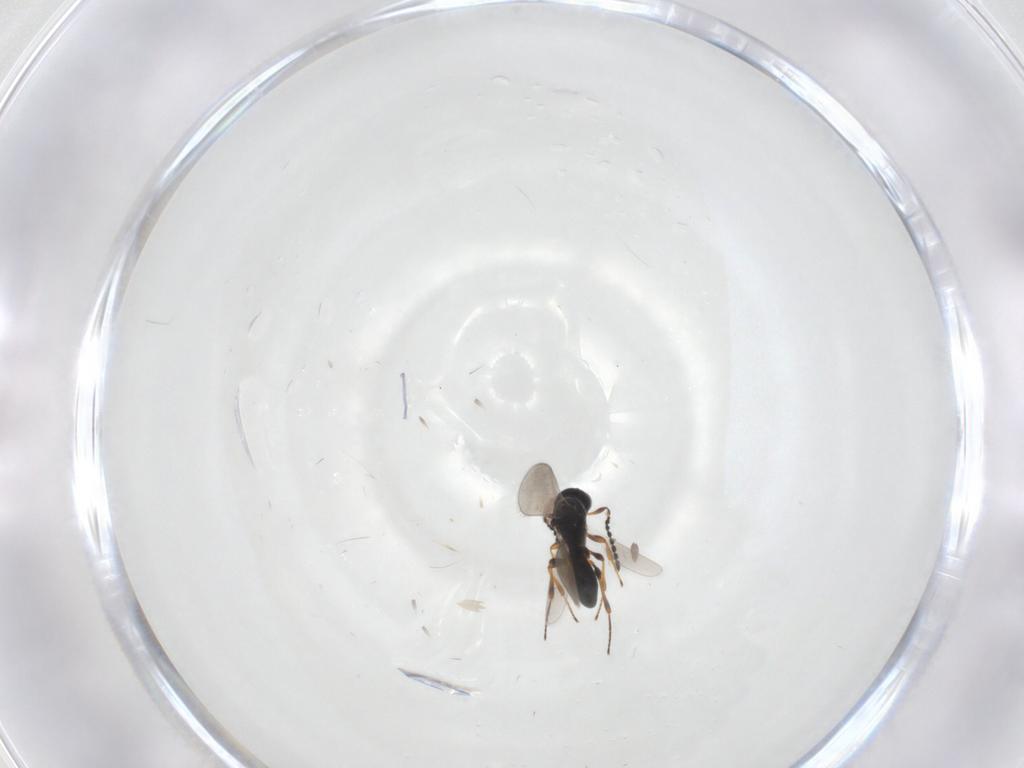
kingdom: Animalia
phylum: Arthropoda
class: Insecta
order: Hymenoptera
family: Platygastridae
